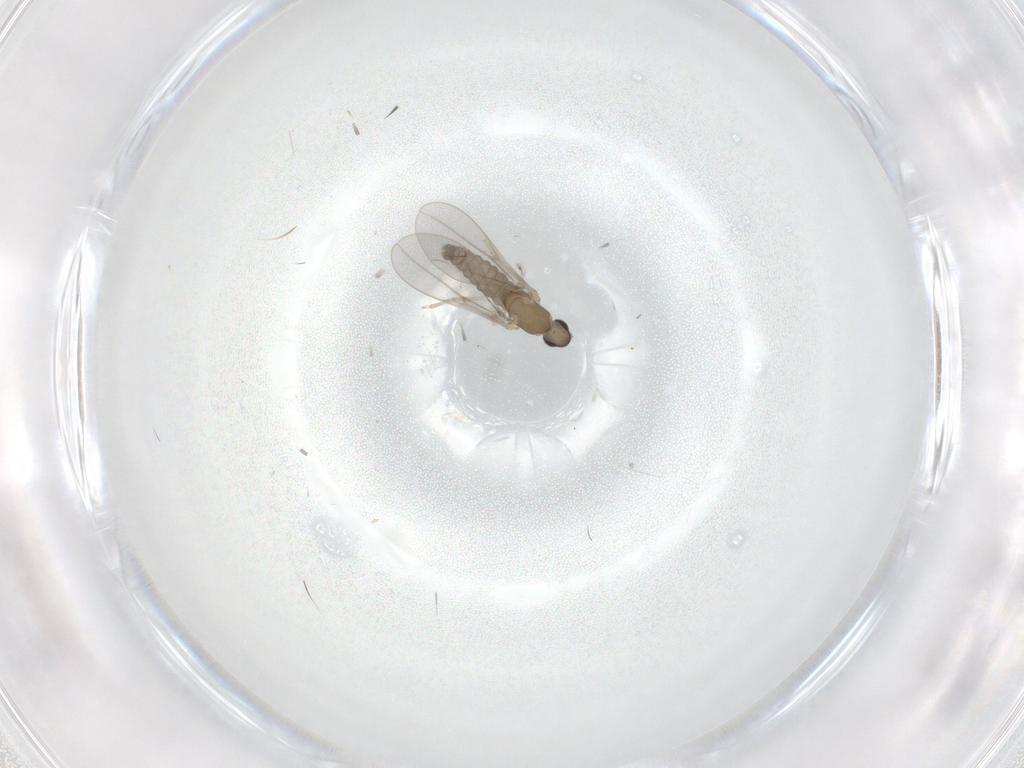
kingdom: Animalia
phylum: Arthropoda
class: Insecta
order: Diptera
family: Cecidomyiidae
